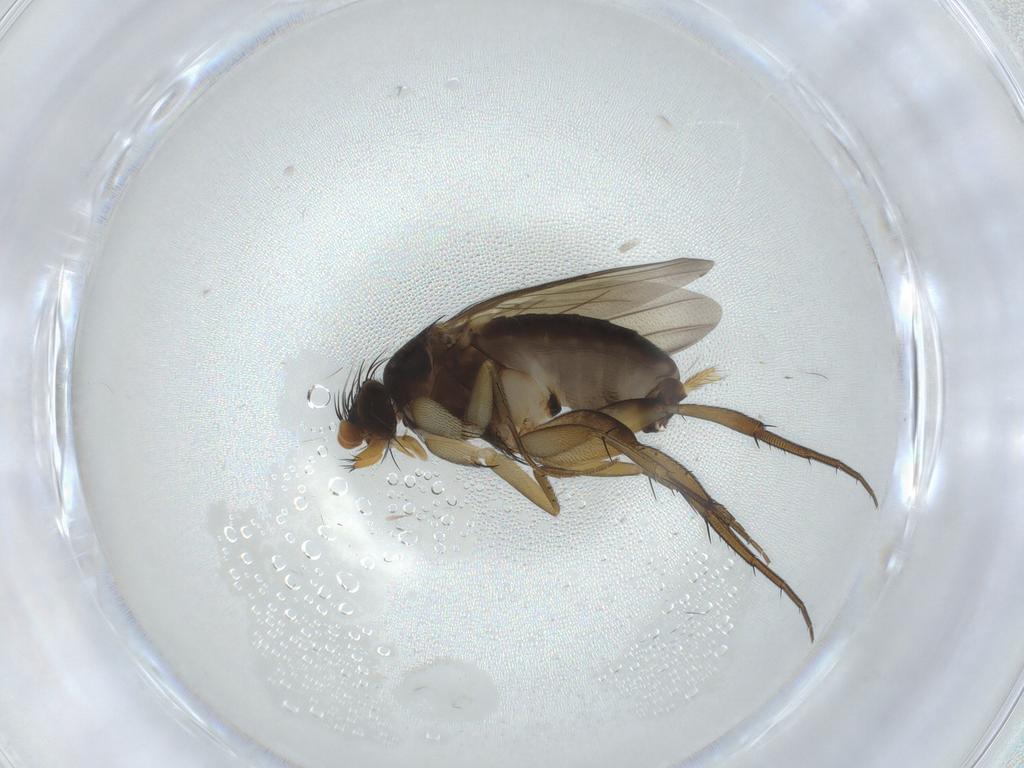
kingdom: Animalia
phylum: Arthropoda
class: Insecta
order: Diptera
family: Phoridae
